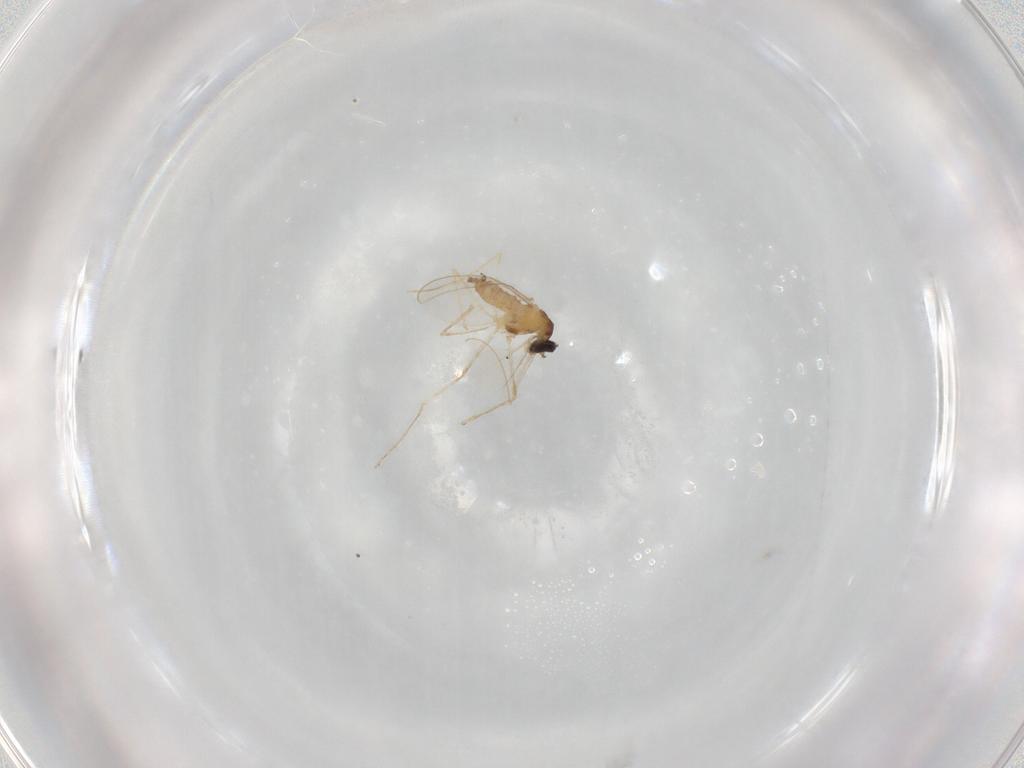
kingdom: Animalia
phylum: Arthropoda
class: Insecta
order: Diptera
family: Cecidomyiidae
